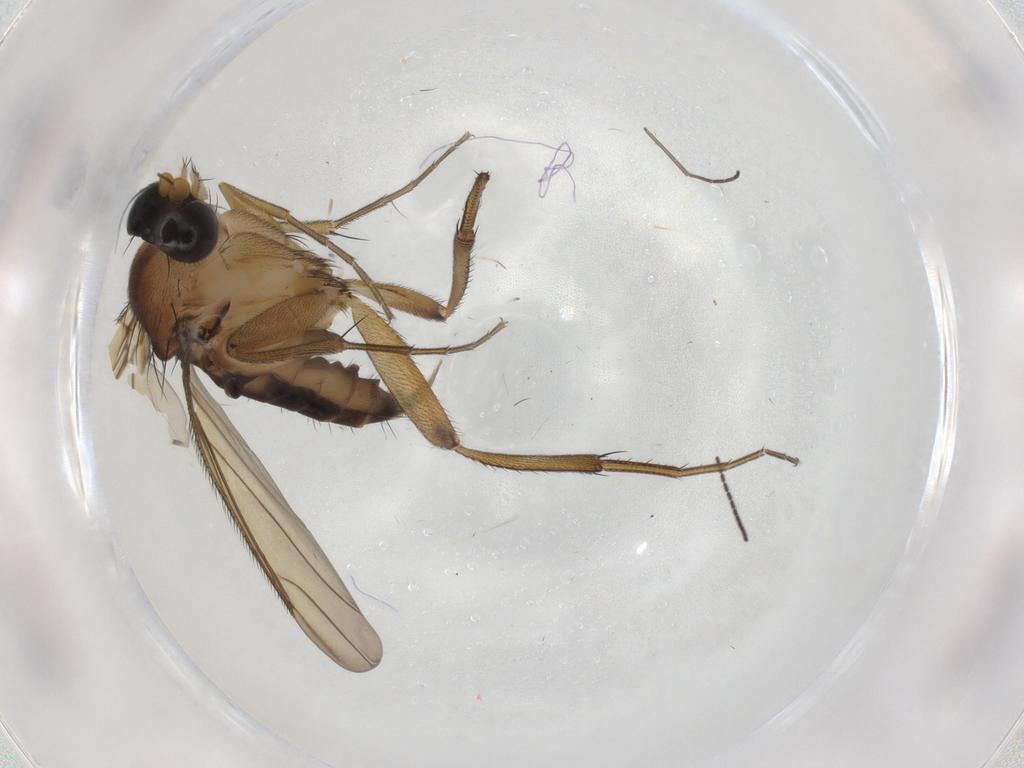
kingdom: Animalia
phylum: Arthropoda
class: Insecta
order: Diptera
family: Phoridae
